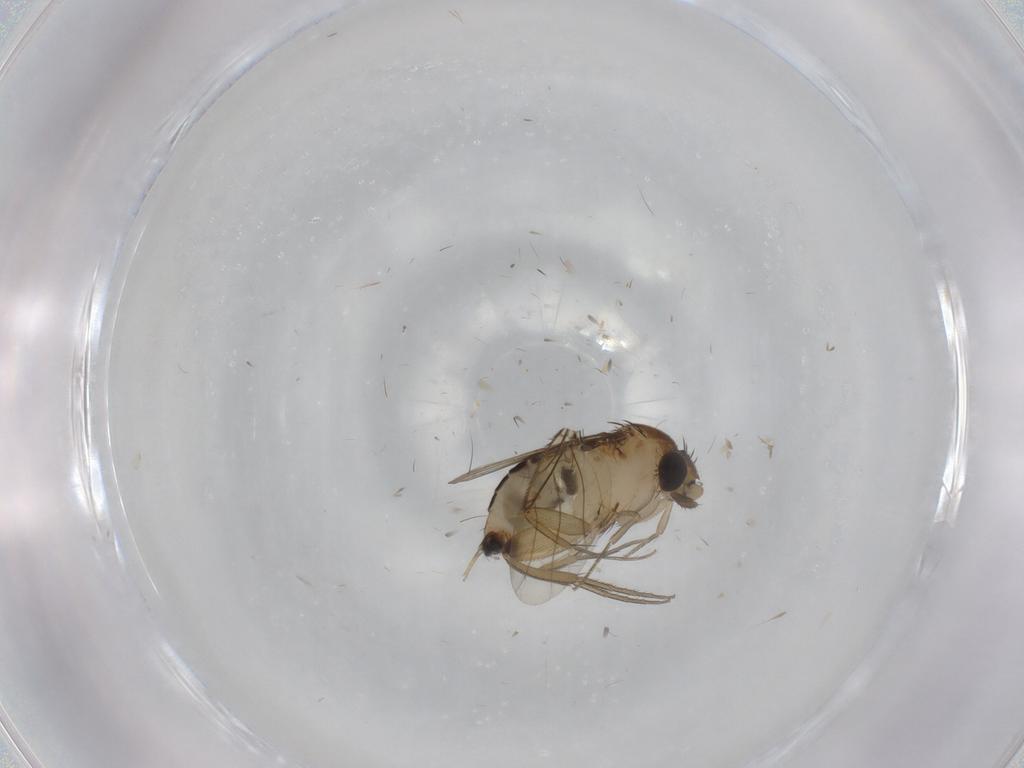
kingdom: Animalia
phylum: Arthropoda
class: Insecta
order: Diptera
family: Phoridae
